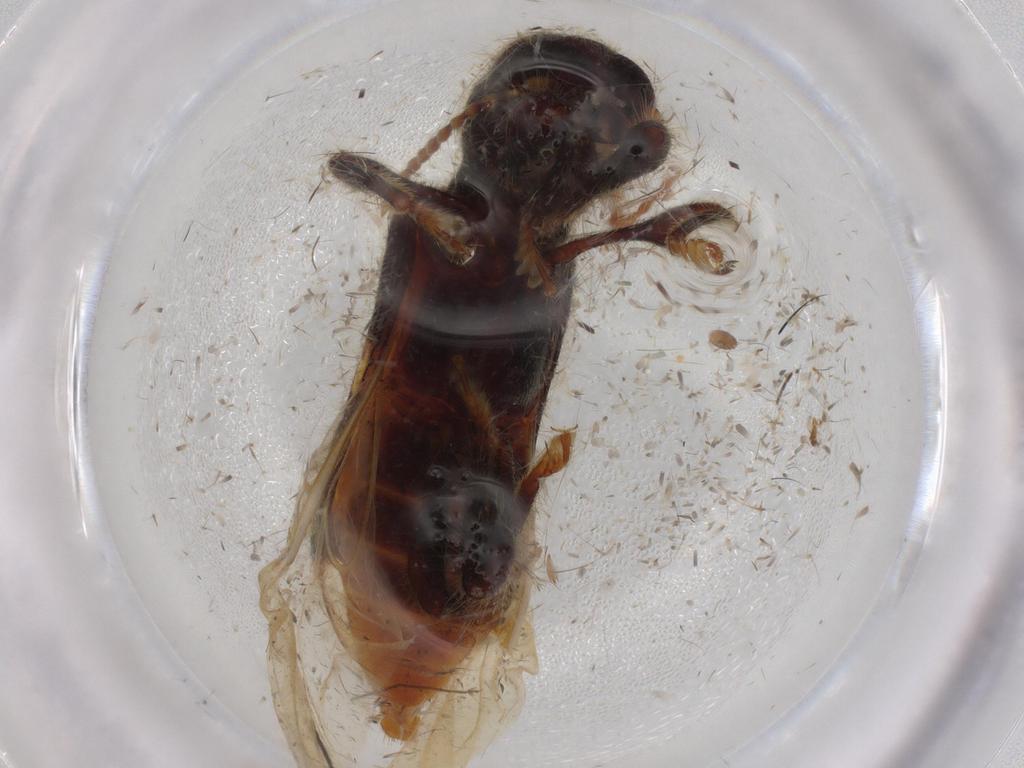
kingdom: Animalia
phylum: Arthropoda
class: Insecta
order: Coleoptera
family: Cleridae
